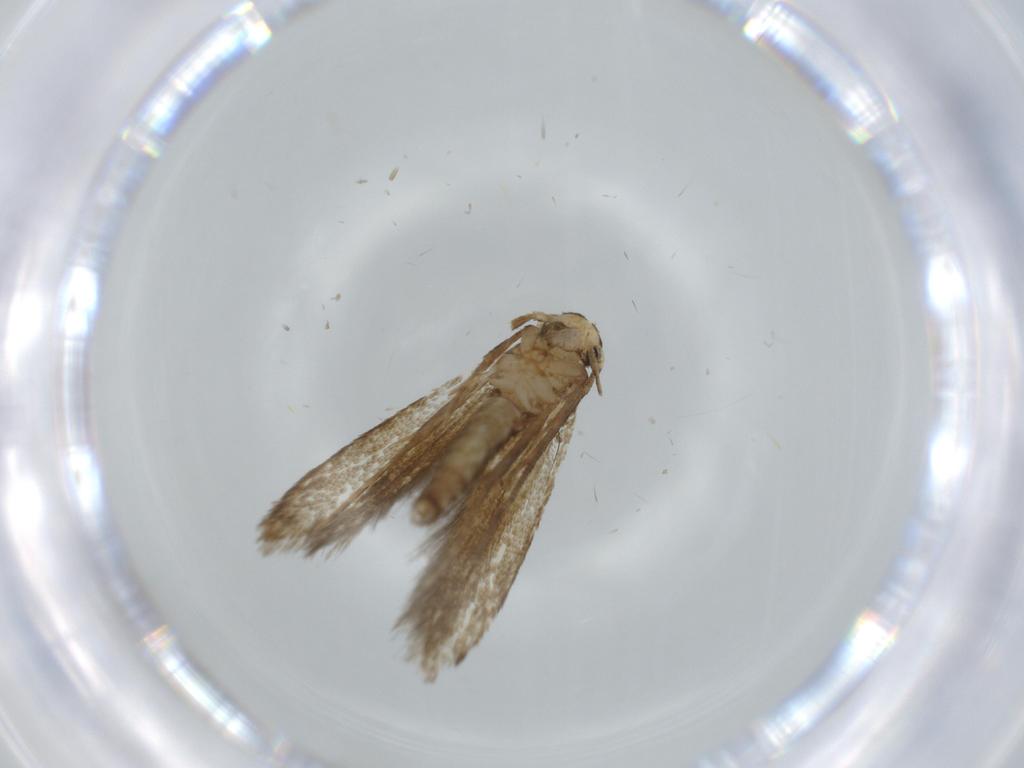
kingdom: Animalia
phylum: Arthropoda
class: Insecta
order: Lepidoptera
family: Tineidae
